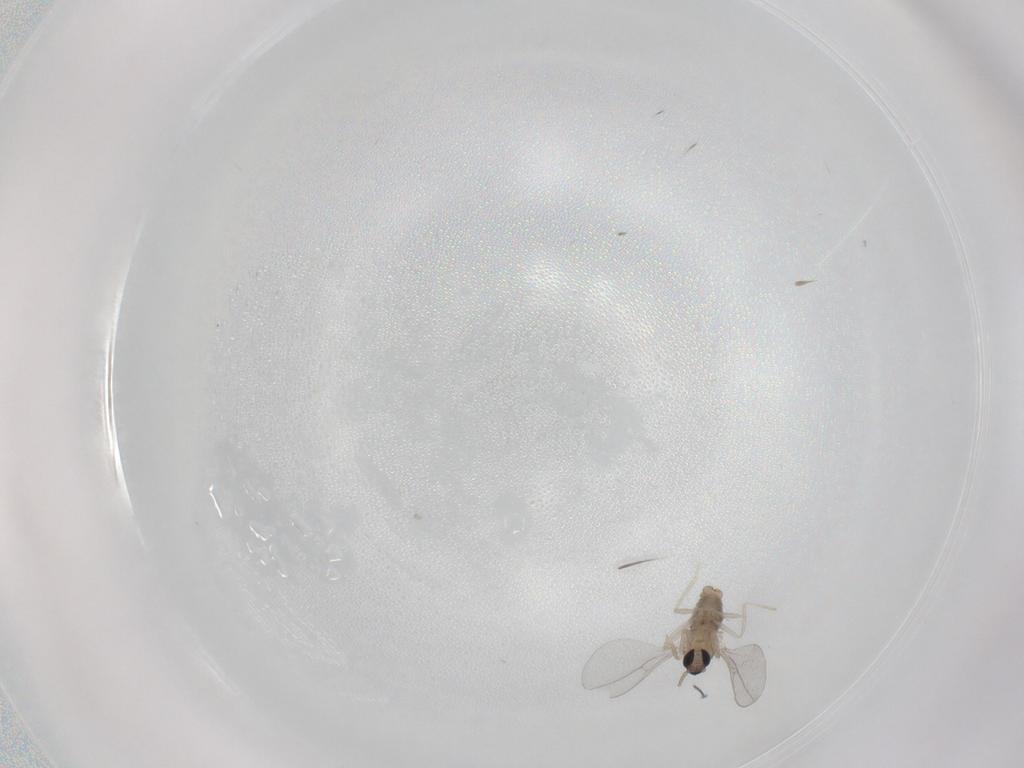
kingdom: Animalia
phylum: Arthropoda
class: Insecta
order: Diptera
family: Cecidomyiidae
